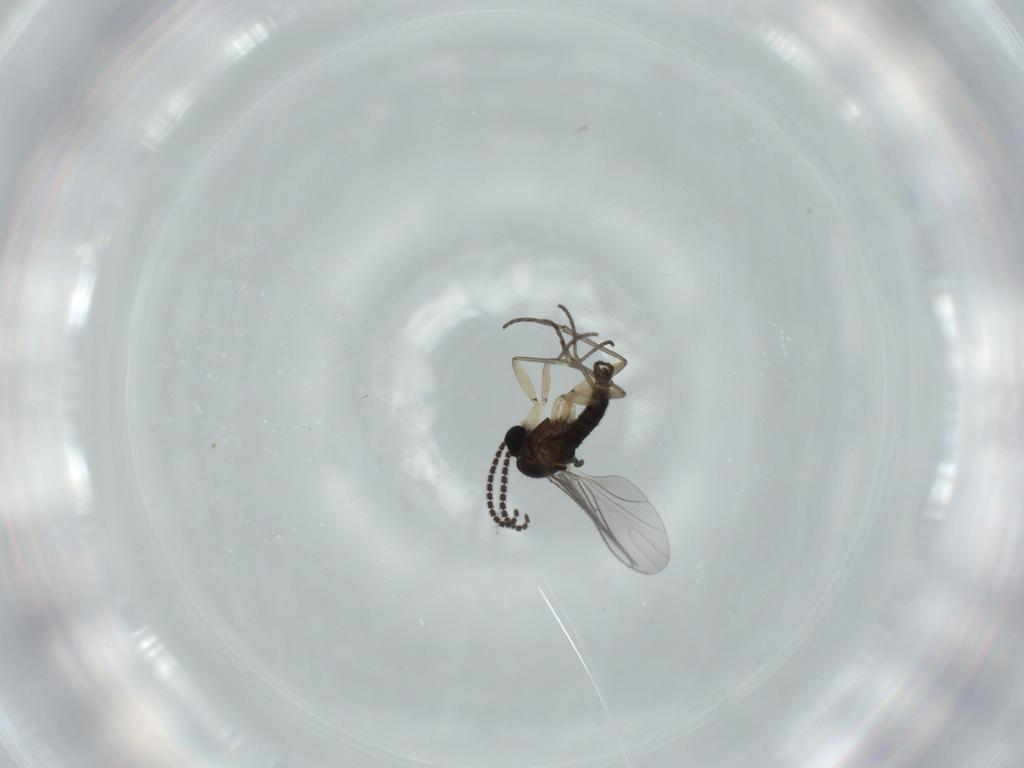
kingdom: Animalia
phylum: Arthropoda
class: Insecta
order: Diptera
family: Sciaridae
